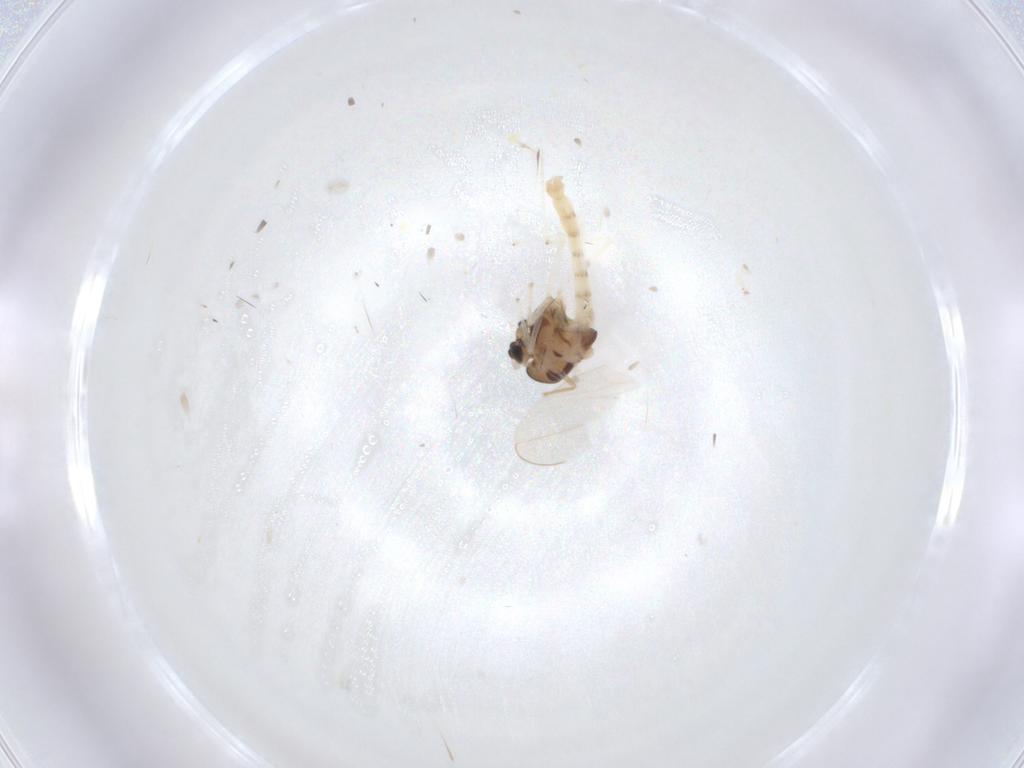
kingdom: Animalia
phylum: Arthropoda
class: Insecta
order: Diptera
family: Chironomidae
